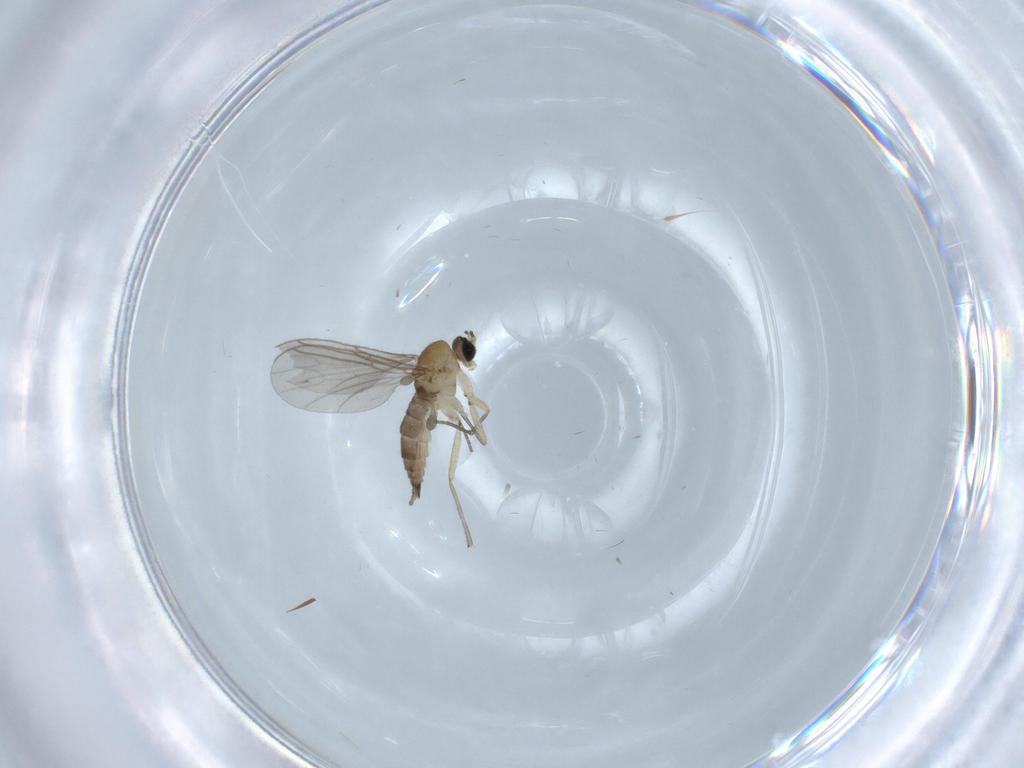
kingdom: Animalia
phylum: Arthropoda
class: Insecta
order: Diptera
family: Sciaridae
